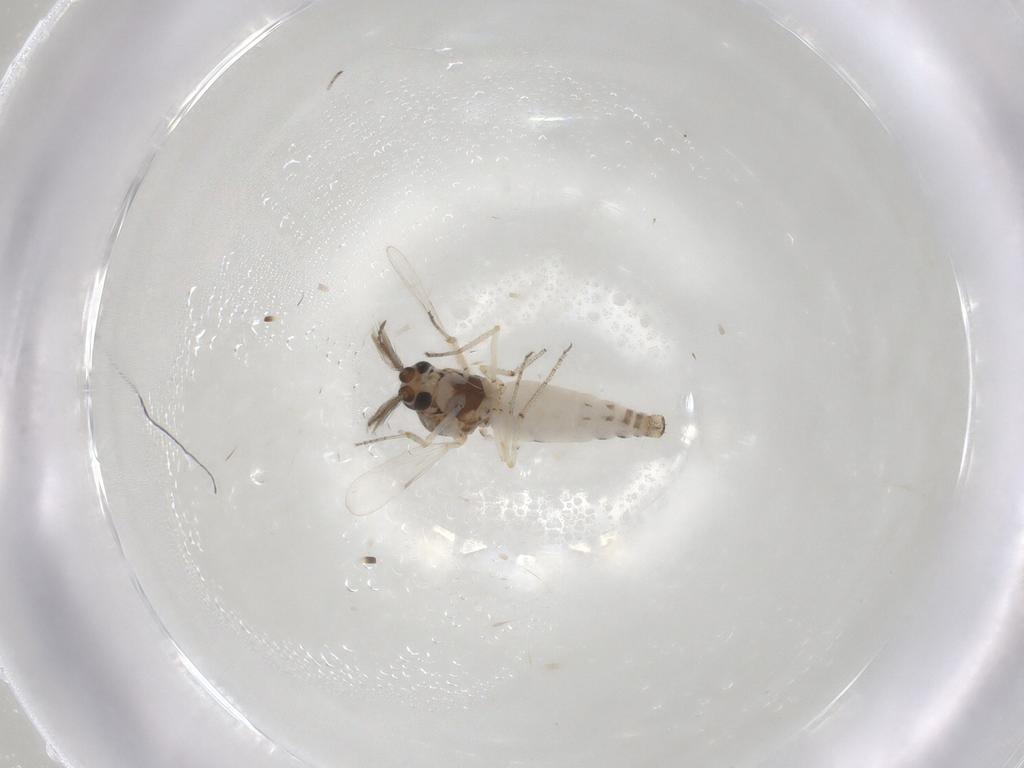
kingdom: Animalia
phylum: Arthropoda
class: Insecta
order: Diptera
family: Ceratopogonidae
